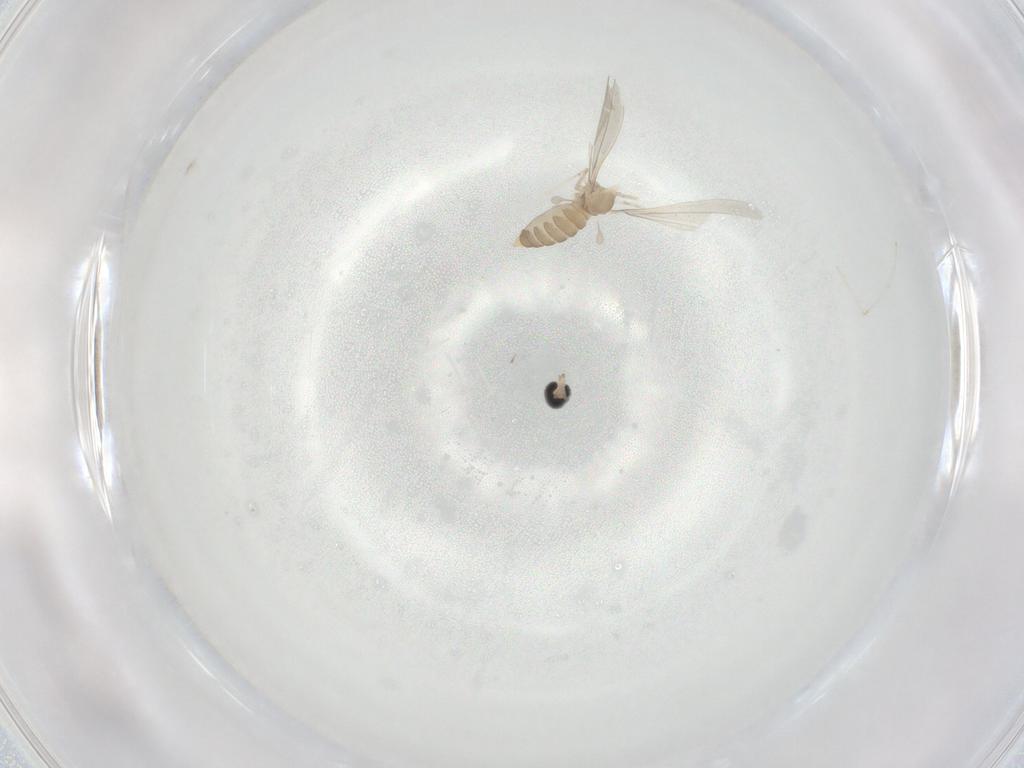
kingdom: Animalia
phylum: Arthropoda
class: Insecta
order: Diptera
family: Cecidomyiidae
